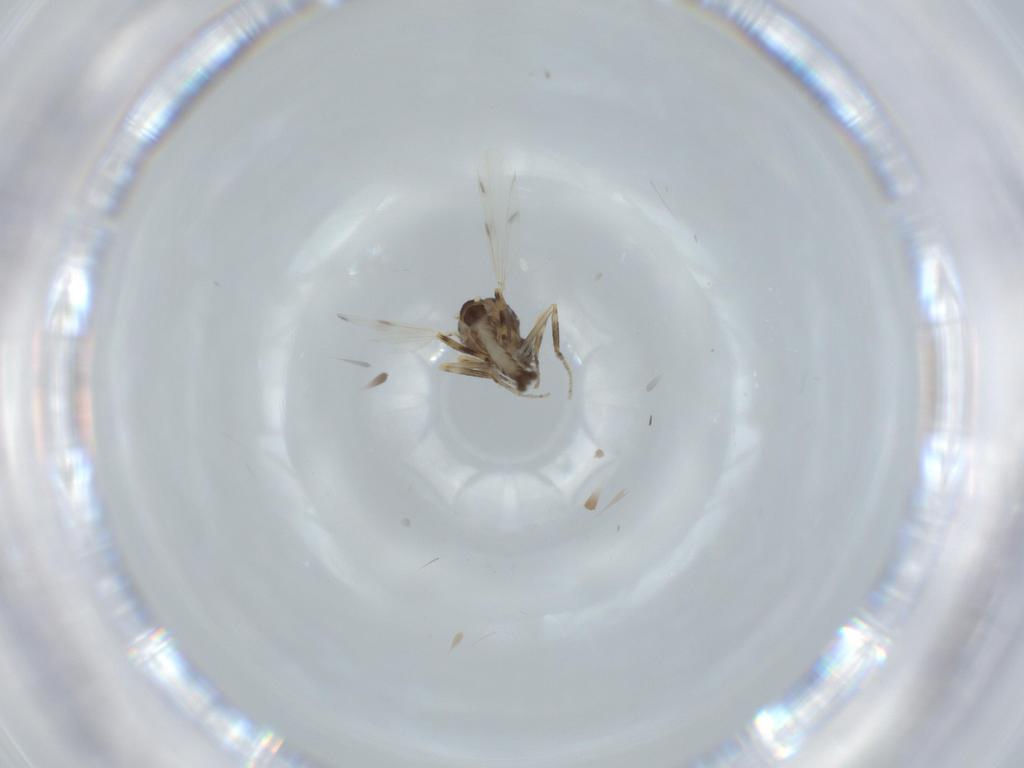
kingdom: Animalia
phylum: Arthropoda
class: Insecta
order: Diptera
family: Ceratopogonidae
